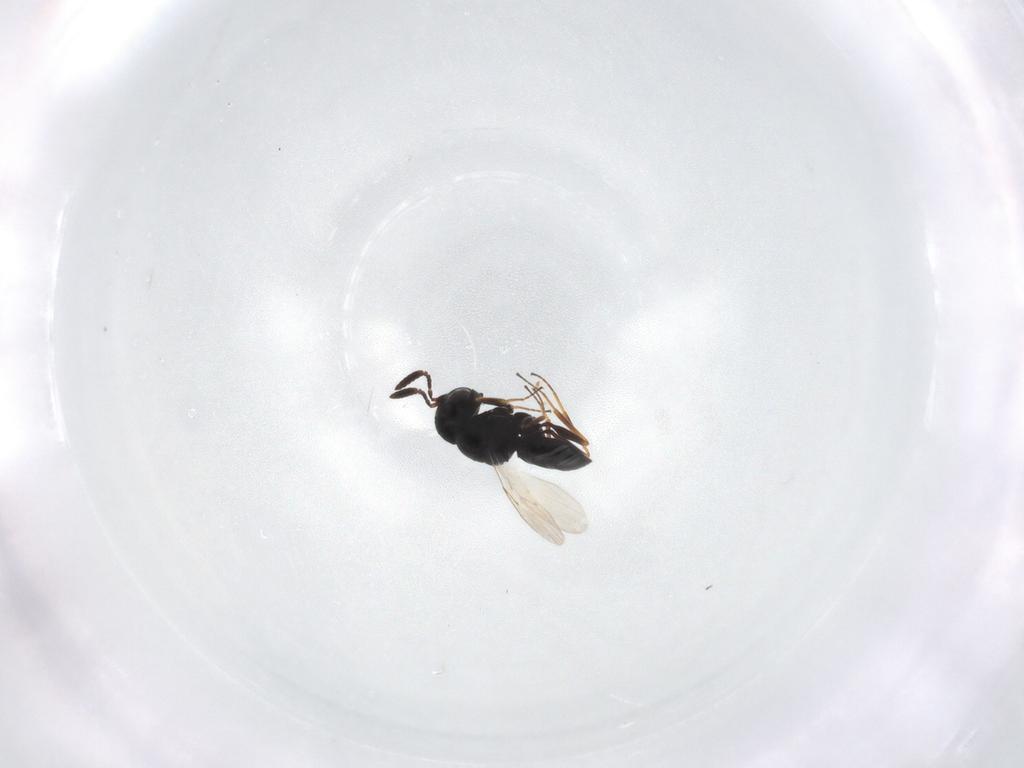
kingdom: Animalia
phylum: Arthropoda
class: Insecta
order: Hymenoptera
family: Scelionidae
